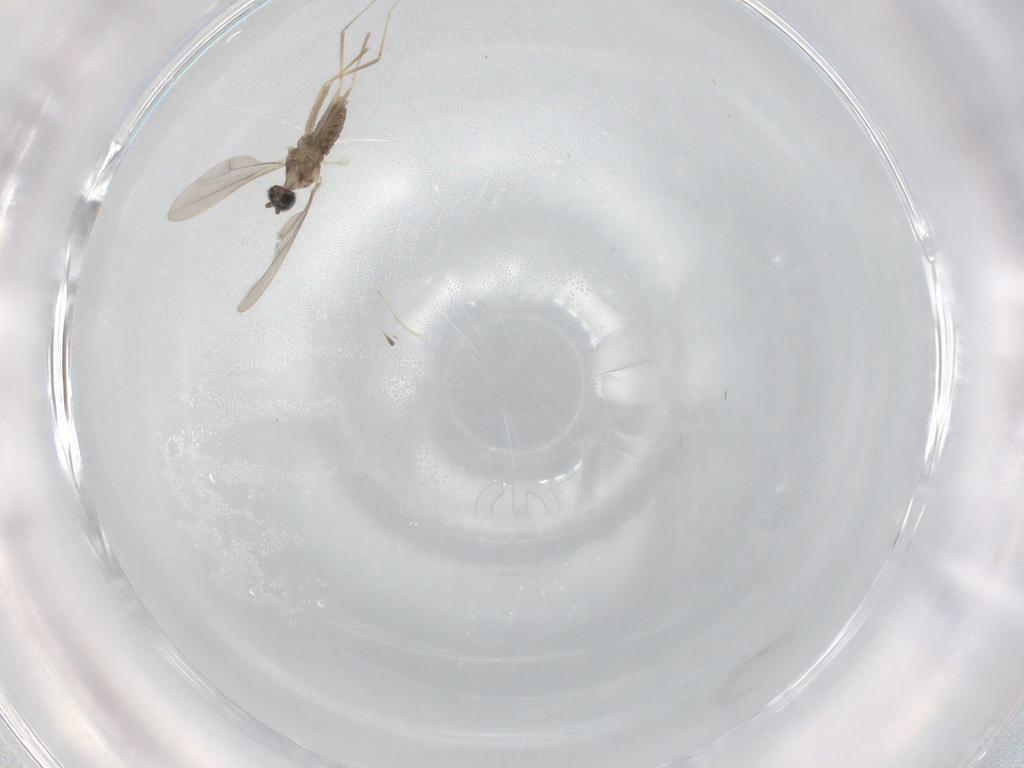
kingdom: Animalia
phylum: Arthropoda
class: Insecta
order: Diptera
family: Cecidomyiidae
